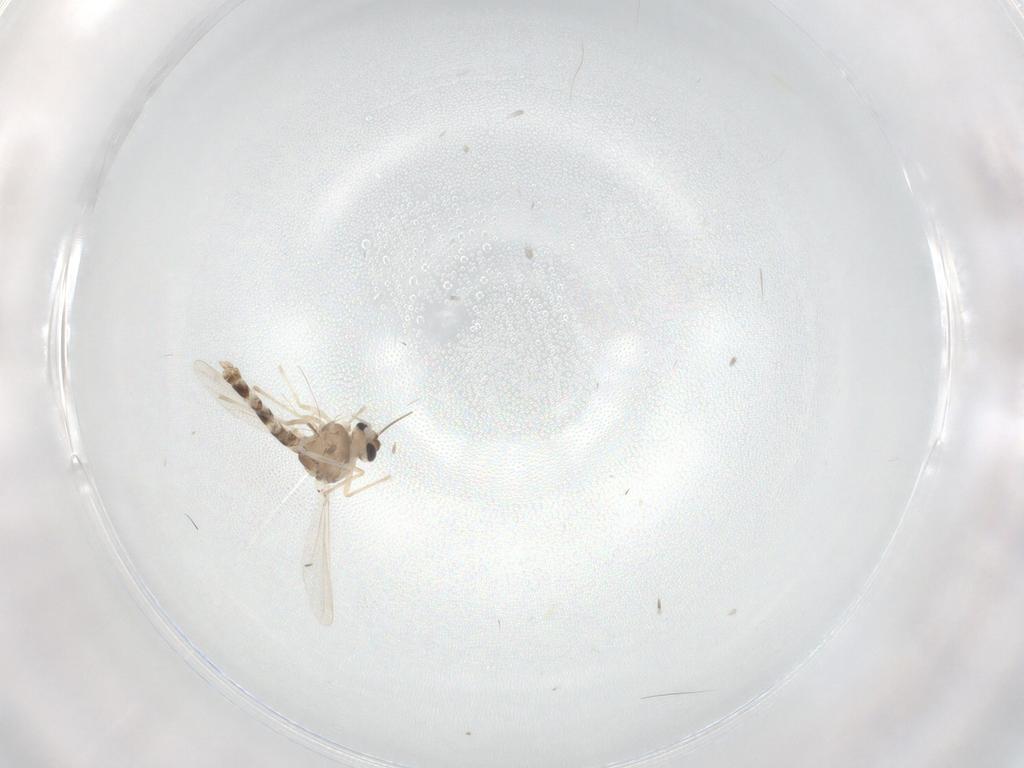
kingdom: Animalia
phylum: Arthropoda
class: Insecta
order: Diptera
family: Chironomidae
